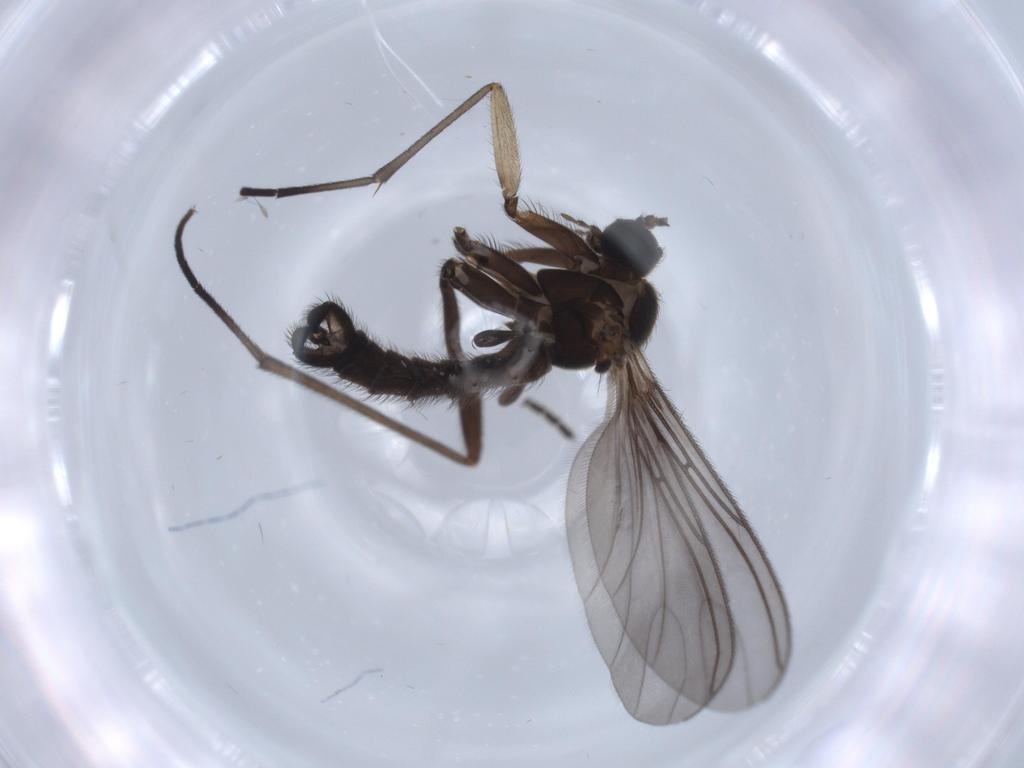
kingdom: Animalia
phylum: Arthropoda
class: Insecta
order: Diptera
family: Sciaridae
